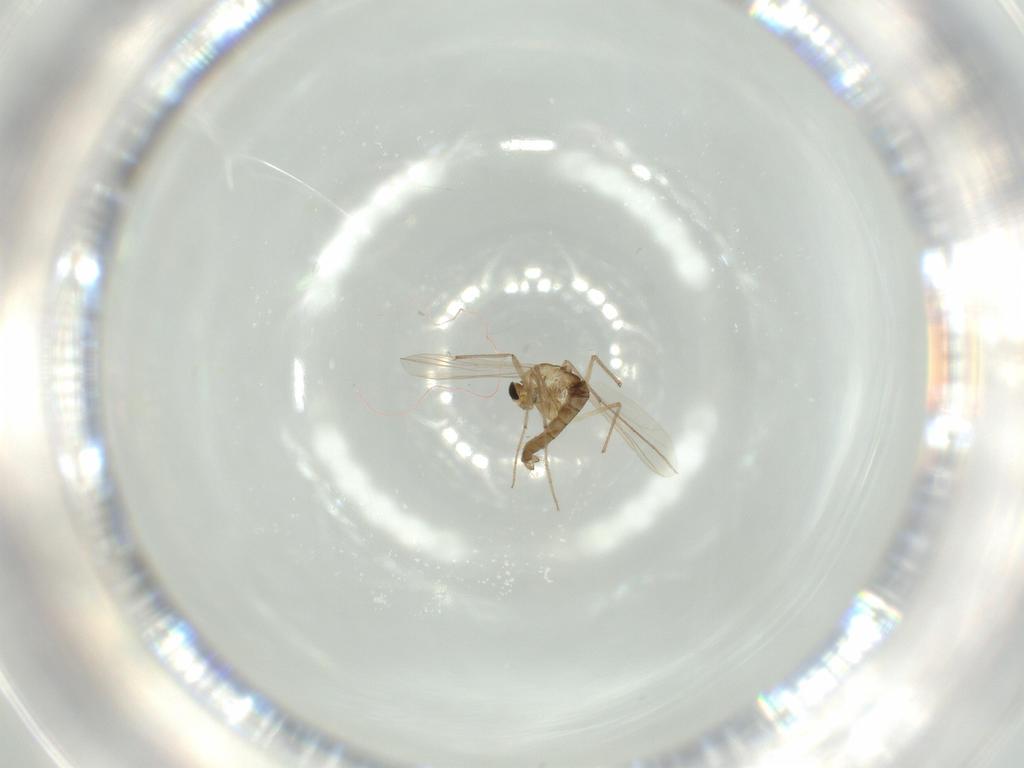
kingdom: Animalia
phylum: Arthropoda
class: Insecta
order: Diptera
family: Chironomidae
